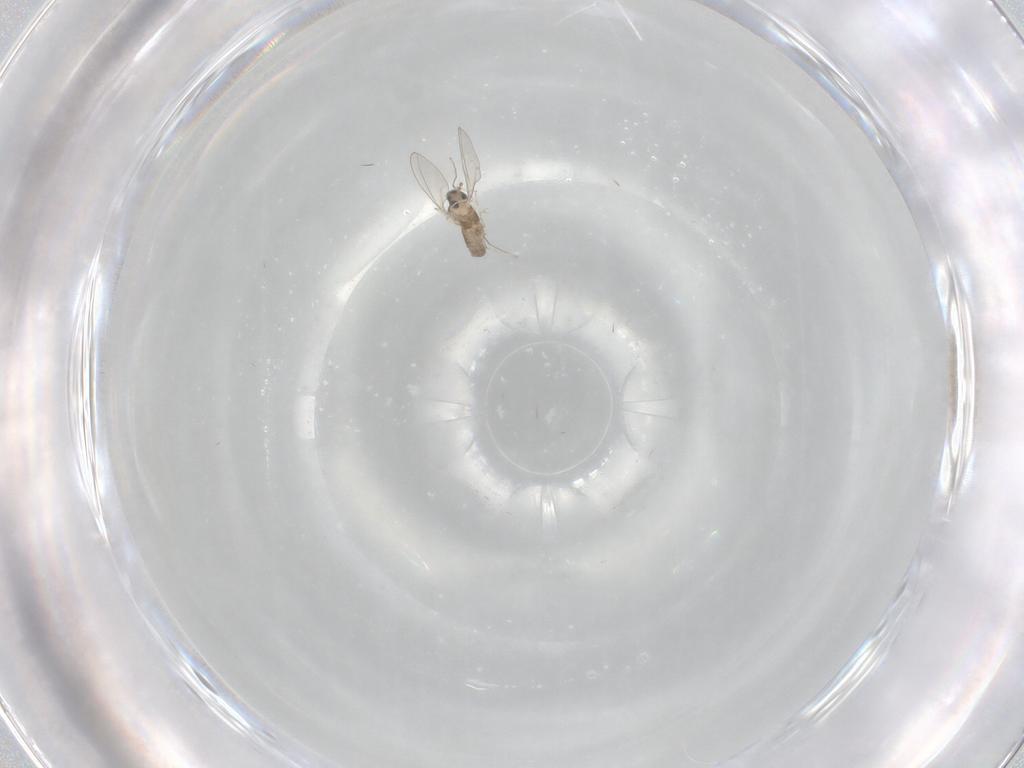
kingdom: Animalia
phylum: Arthropoda
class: Insecta
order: Diptera
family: Cecidomyiidae
